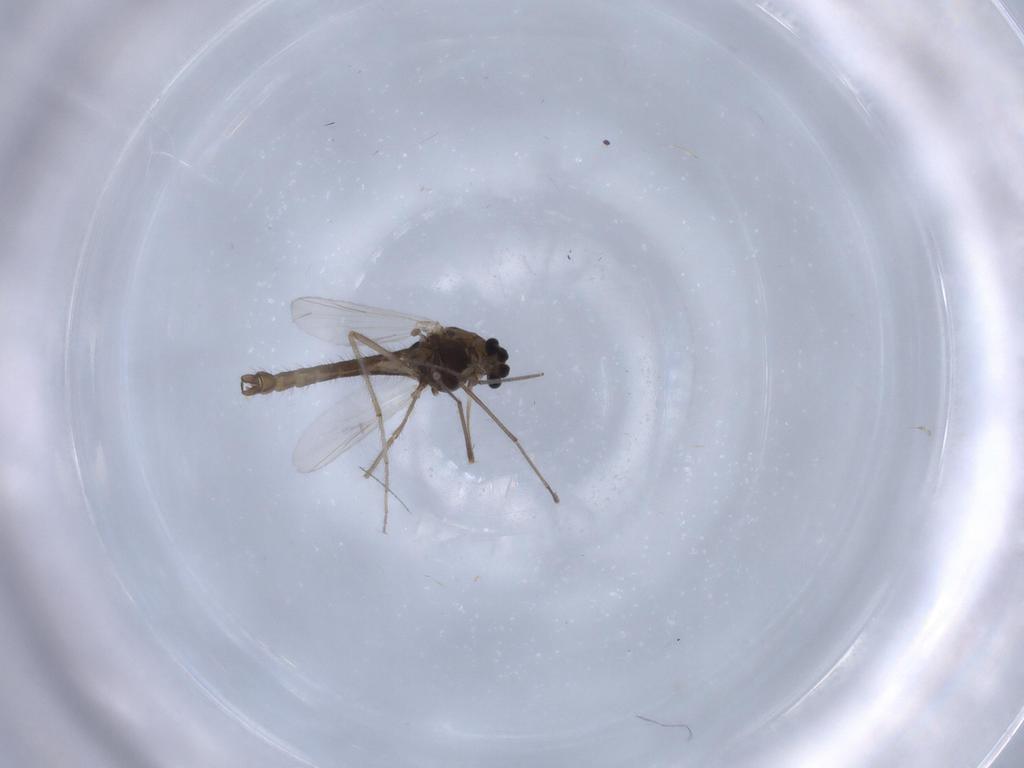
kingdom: Animalia
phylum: Arthropoda
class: Insecta
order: Diptera
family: Chironomidae
